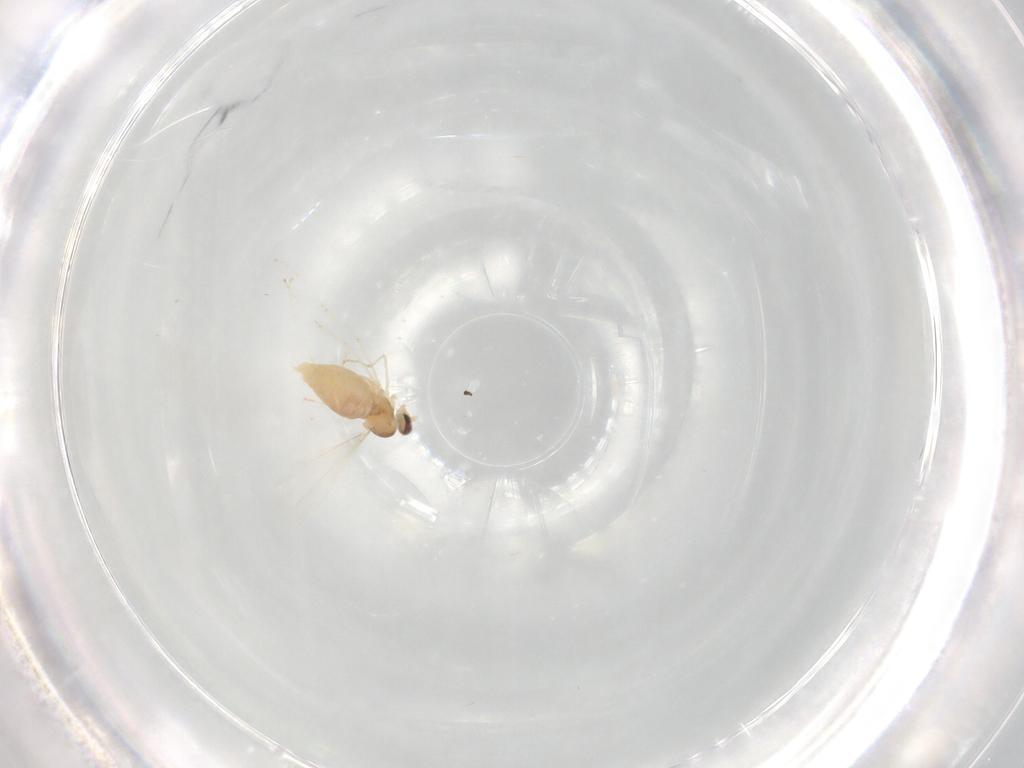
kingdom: Animalia
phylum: Arthropoda
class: Insecta
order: Diptera
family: Cecidomyiidae
